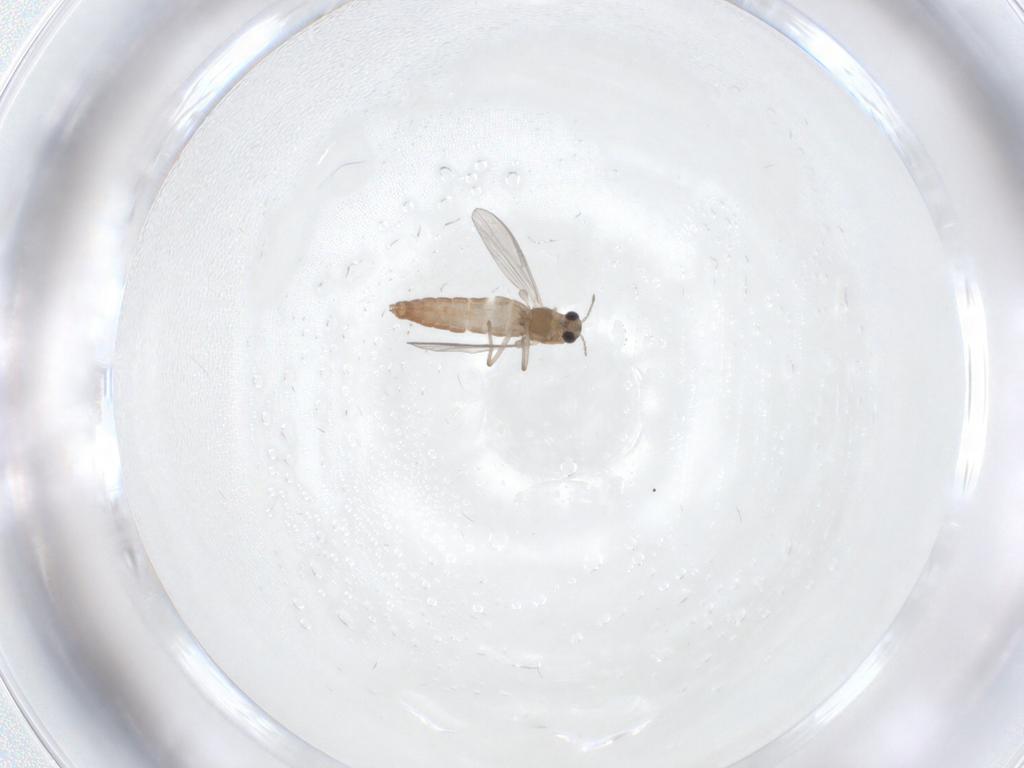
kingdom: Animalia
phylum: Arthropoda
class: Insecta
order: Diptera
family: Chironomidae
